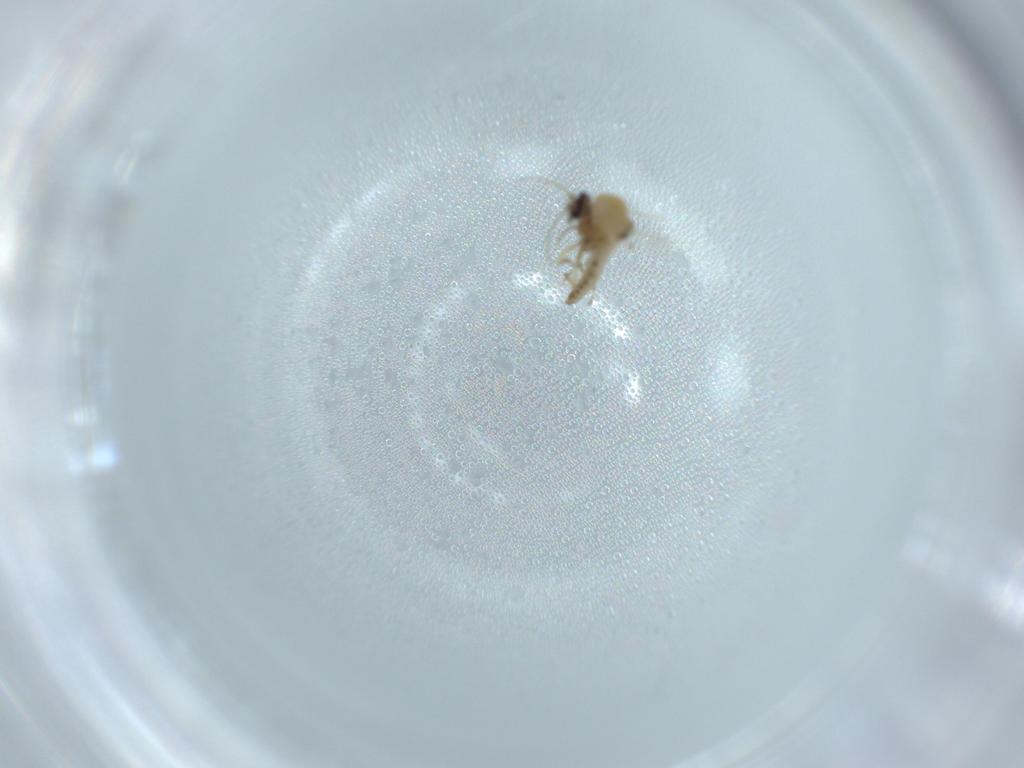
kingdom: Animalia
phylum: Arthropoda
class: Insecta
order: Diptera
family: Ceratopogonidae
